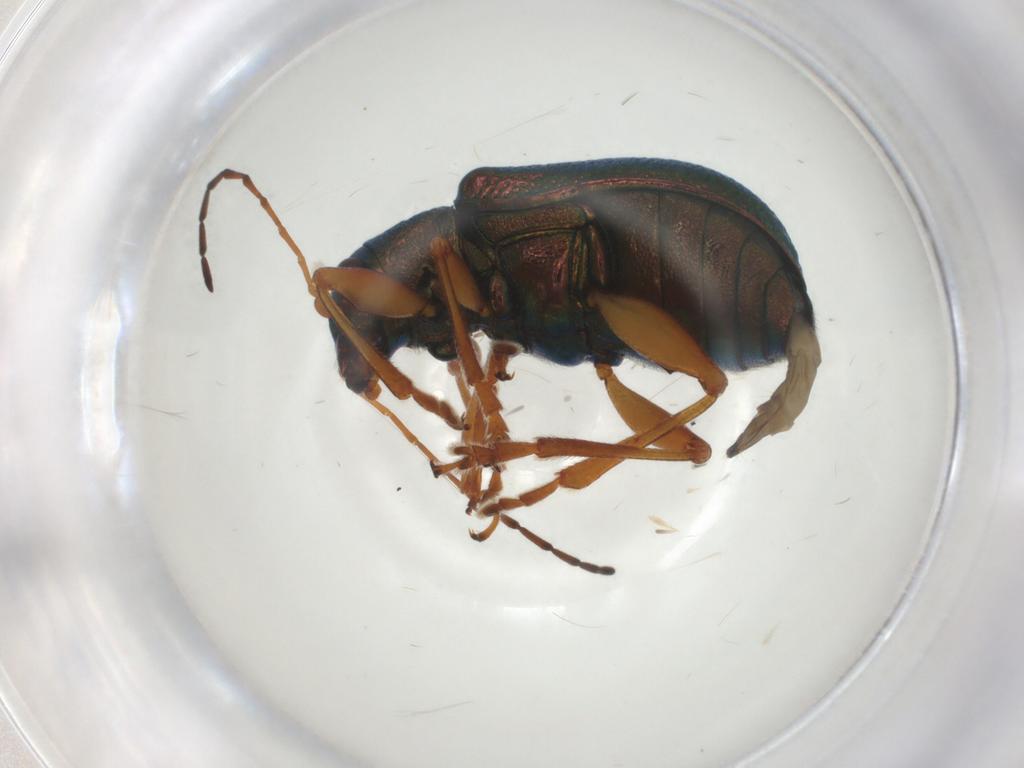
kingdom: Animalia
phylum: Arthropoda
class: Insecta
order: Coleoptera
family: Chrysomelidae
